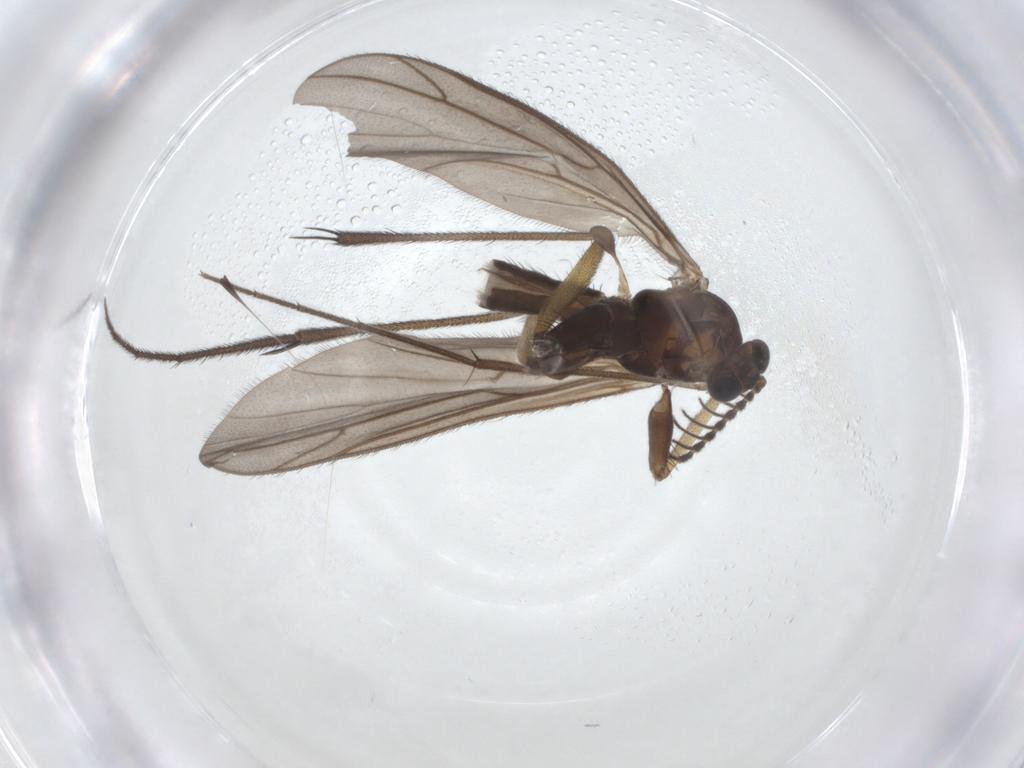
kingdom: Animalia
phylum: Arthropoda
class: Insecta
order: Diptera
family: Ditomyiidae
